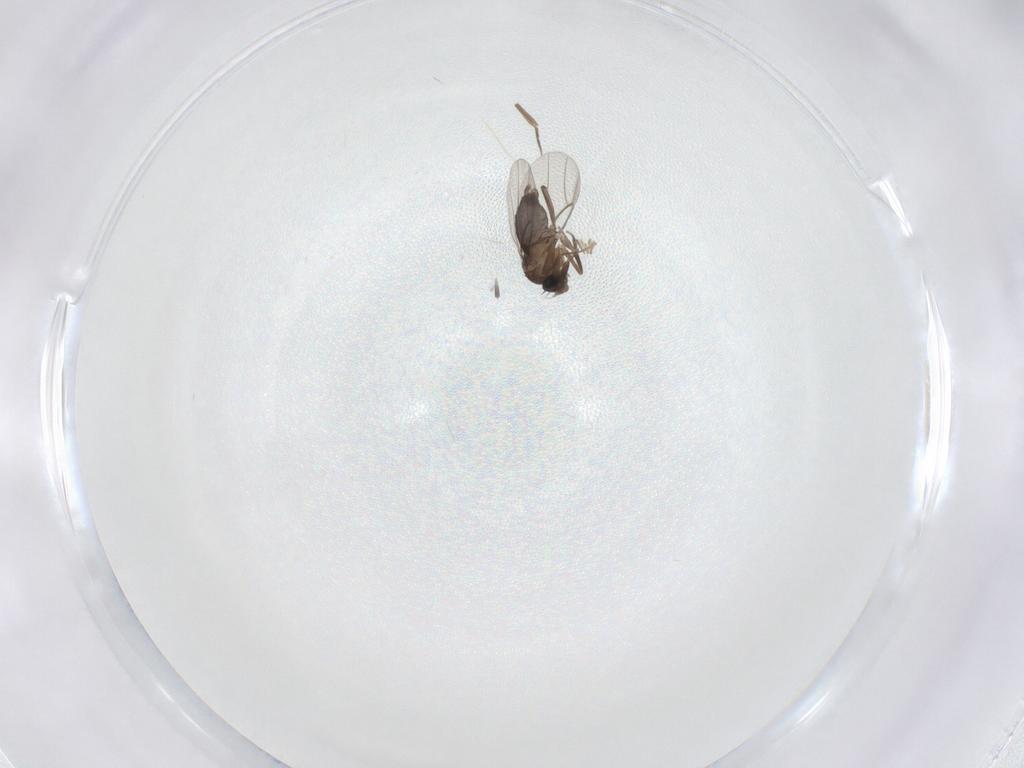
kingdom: Animalia
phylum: Arthropoda
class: Insecta
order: Diptera
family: Phoridae
